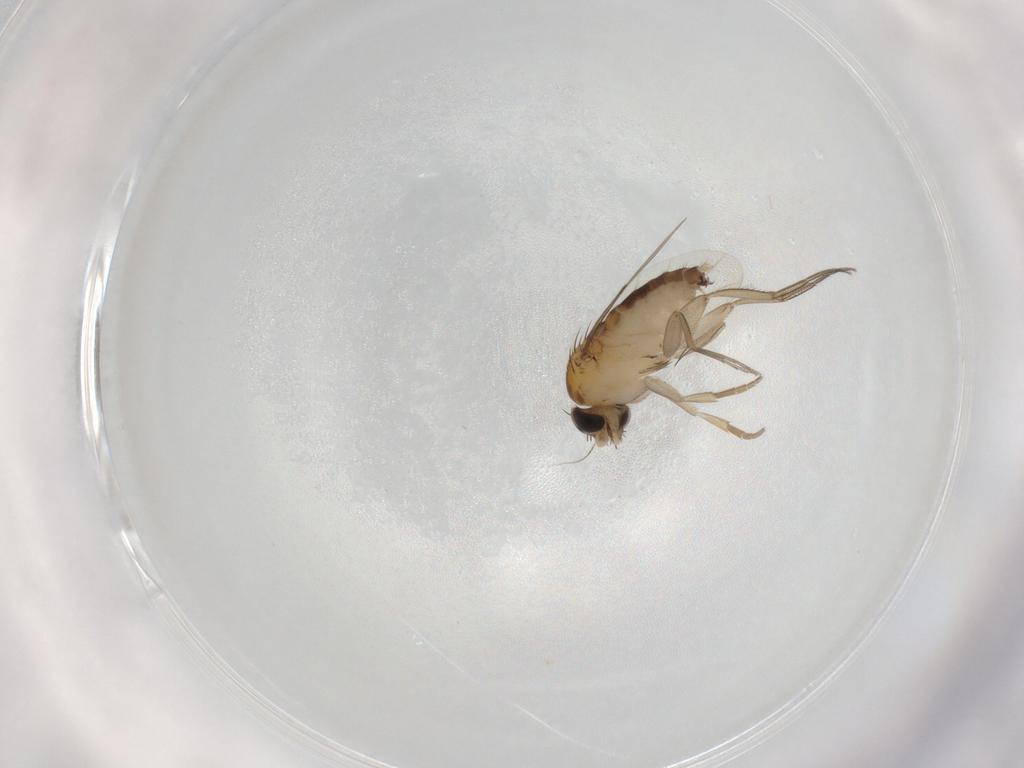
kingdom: Animalia
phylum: Arthropoda
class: Insecta
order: Diptera
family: Phoridae
